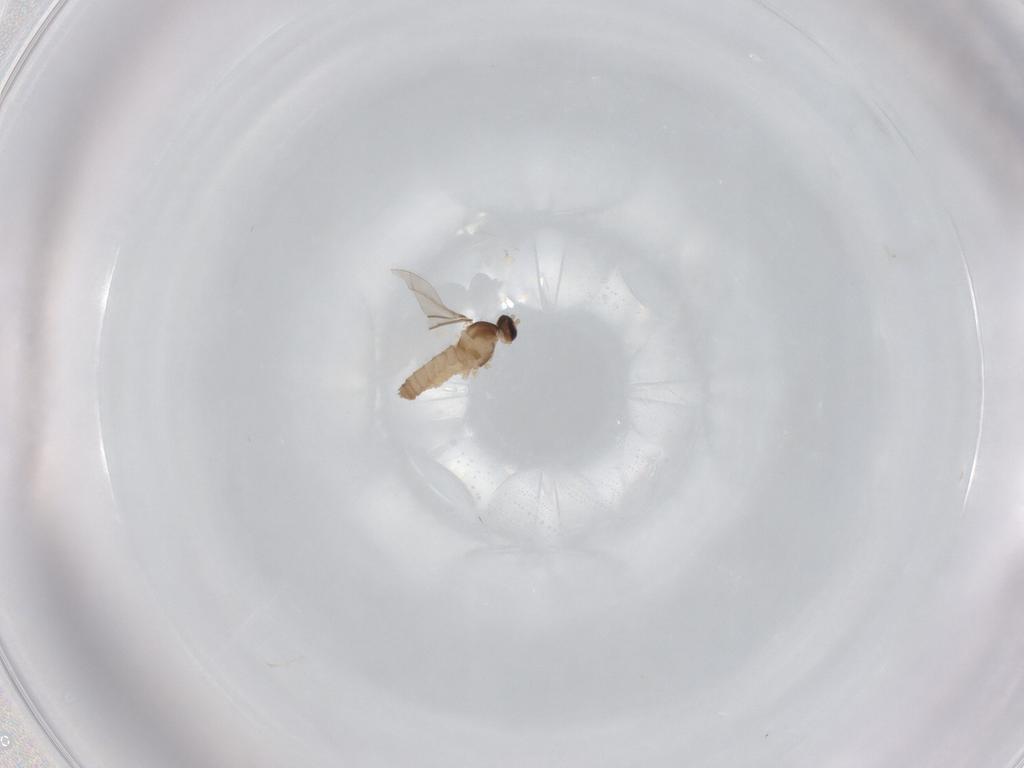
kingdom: Animalia
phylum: Arthropoda
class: Insecta
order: Diptera
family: Cecidomyiidae
